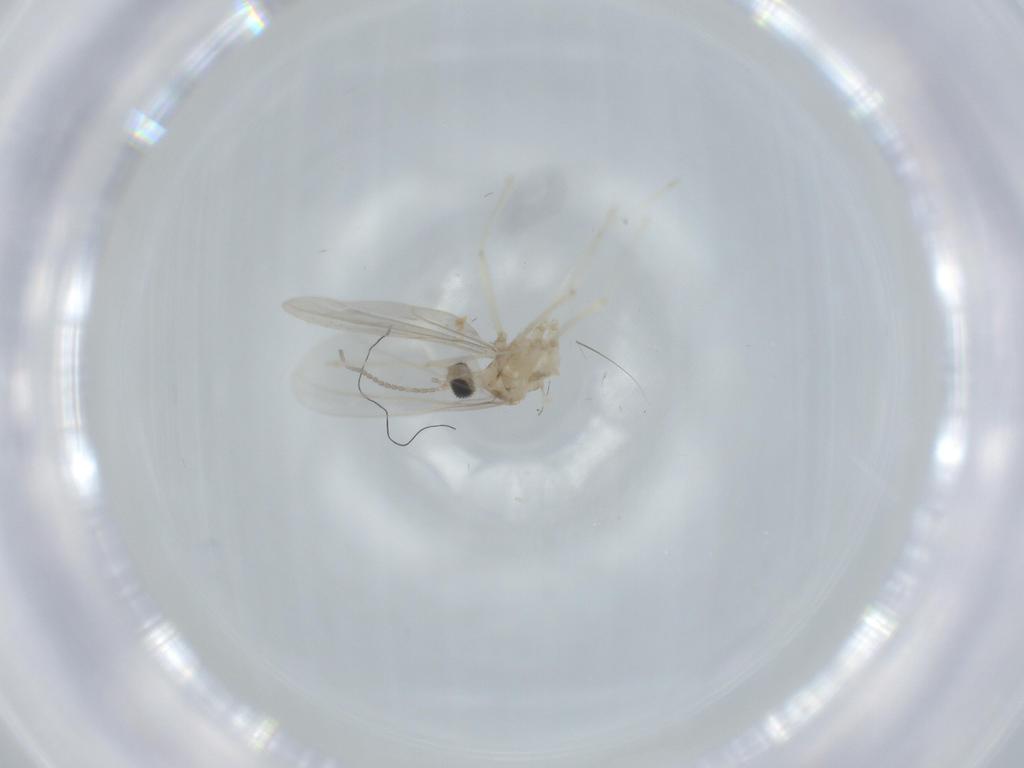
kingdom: Animalia
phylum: Arthropoda
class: Insecta
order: Diptera
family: Cecidomyiidae
